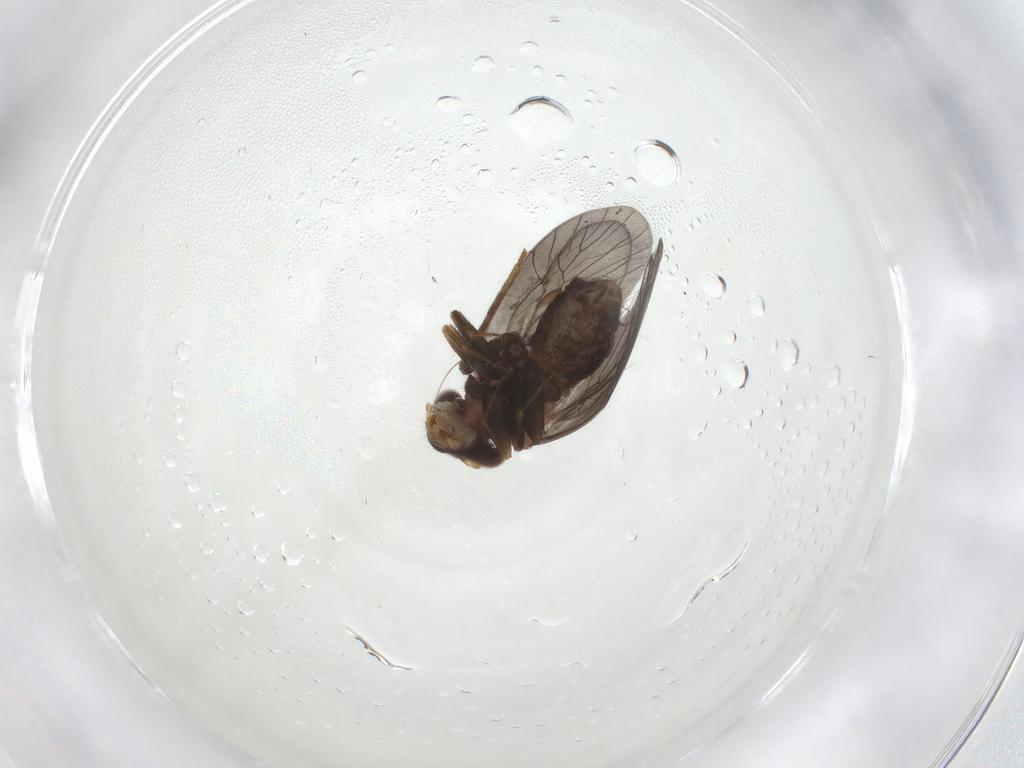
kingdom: Animalia
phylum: Arthropoda
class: Insecta
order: Psocodea
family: Lepidopsocidae
